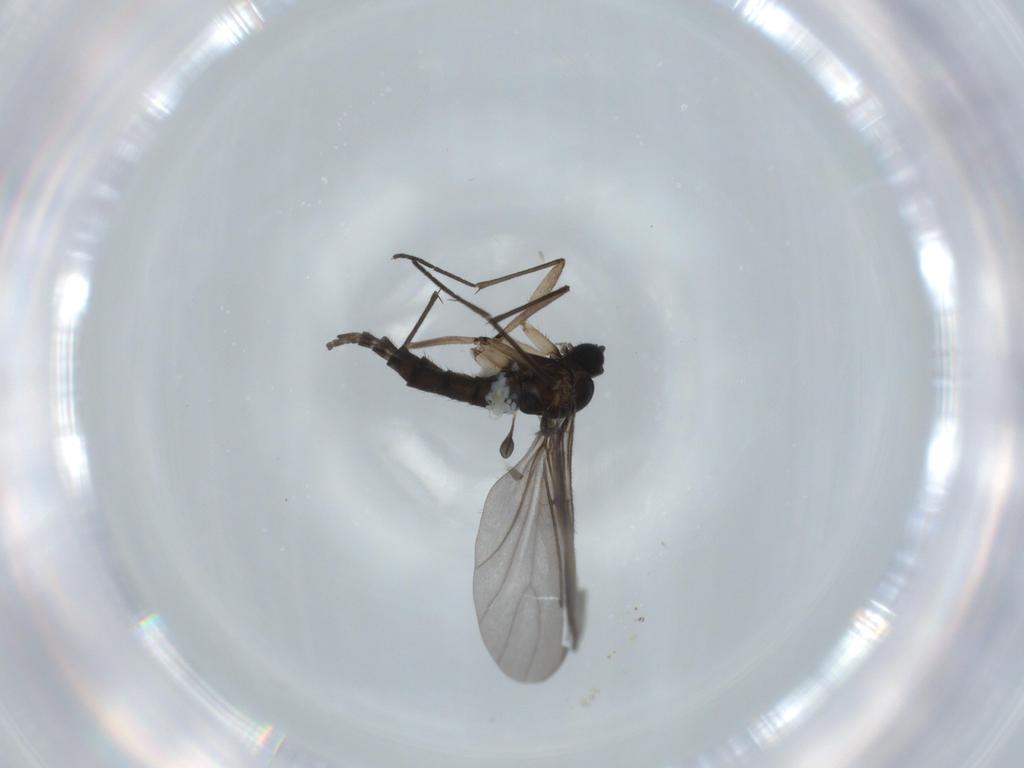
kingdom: Animalia
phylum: Arthropoda
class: Insecta
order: Diptera
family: Sciaridae
